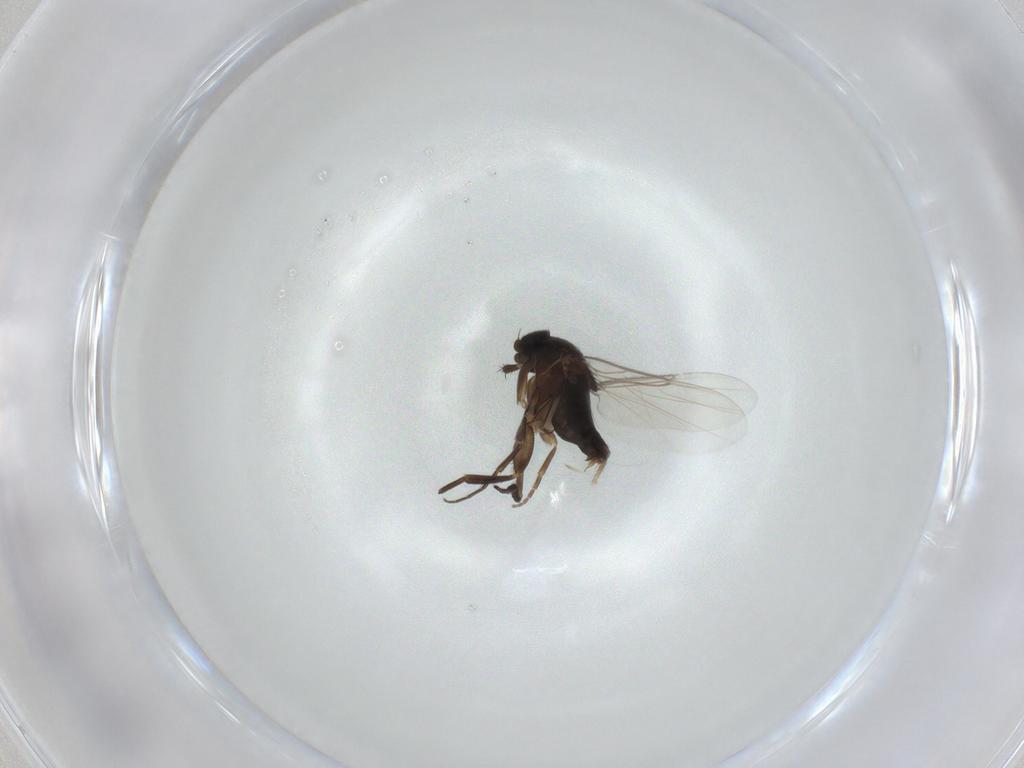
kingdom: Animalia
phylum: Arthropoda
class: Insecta
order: Diptera
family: Phoridae
